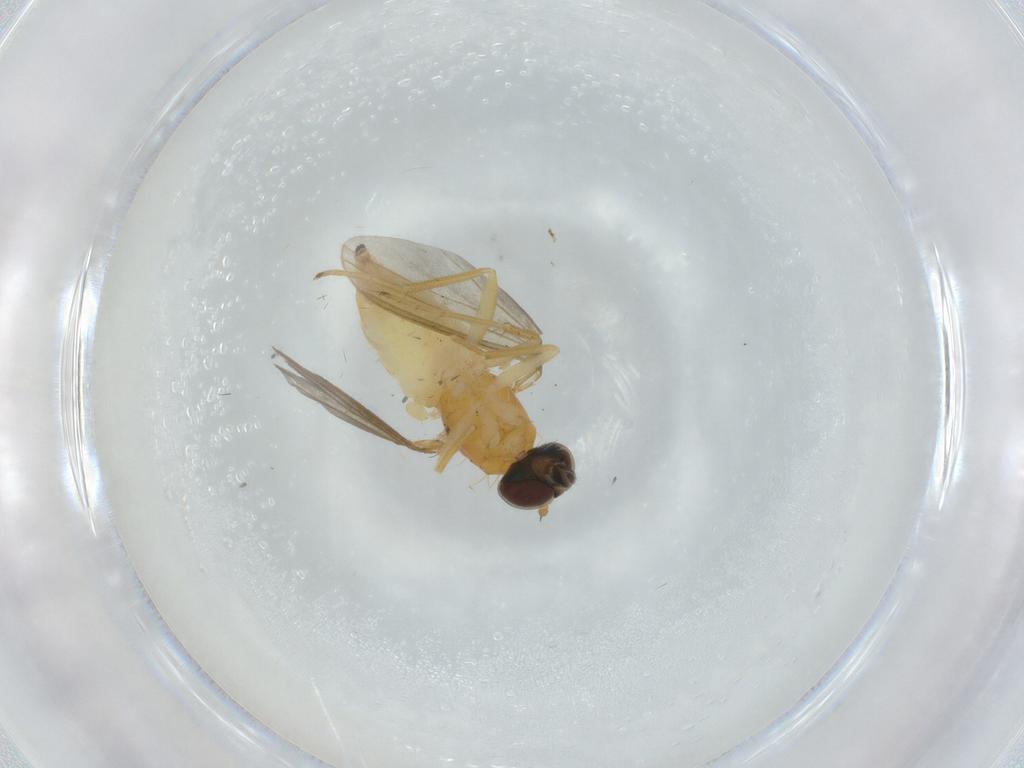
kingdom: Animalia
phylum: Arthropoda
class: Insecta
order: Diptera
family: Dolichopodidae
